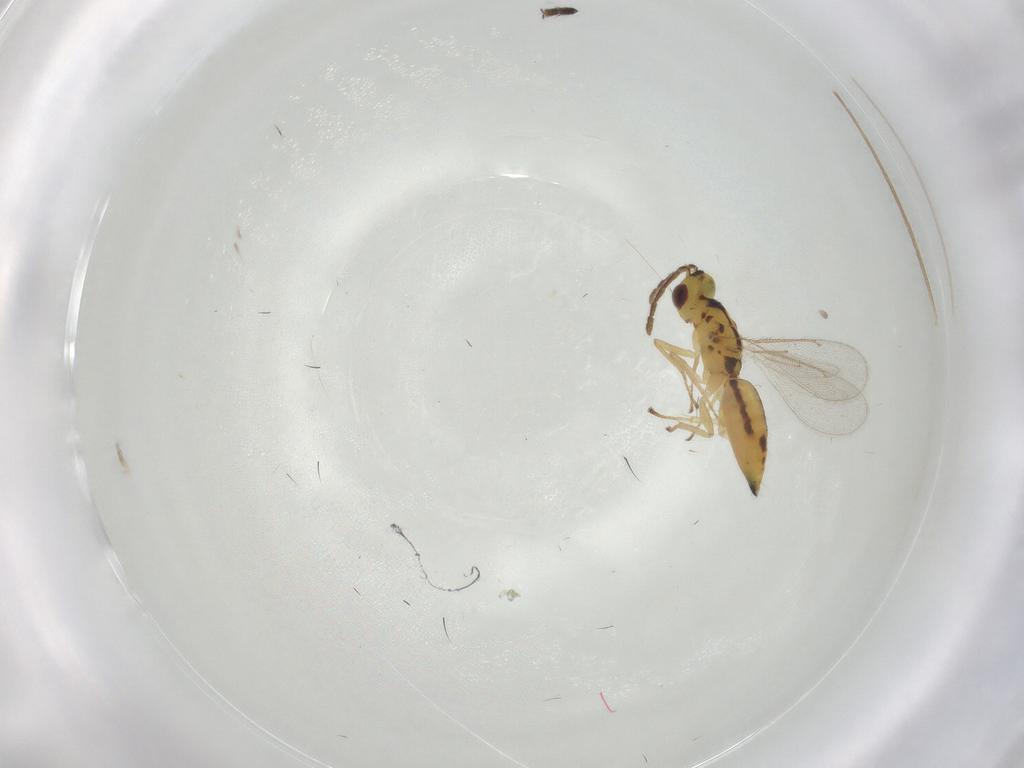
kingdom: Animalia
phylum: Arthropoda
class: Insecta
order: Hymenoptera
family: Eulophidae
